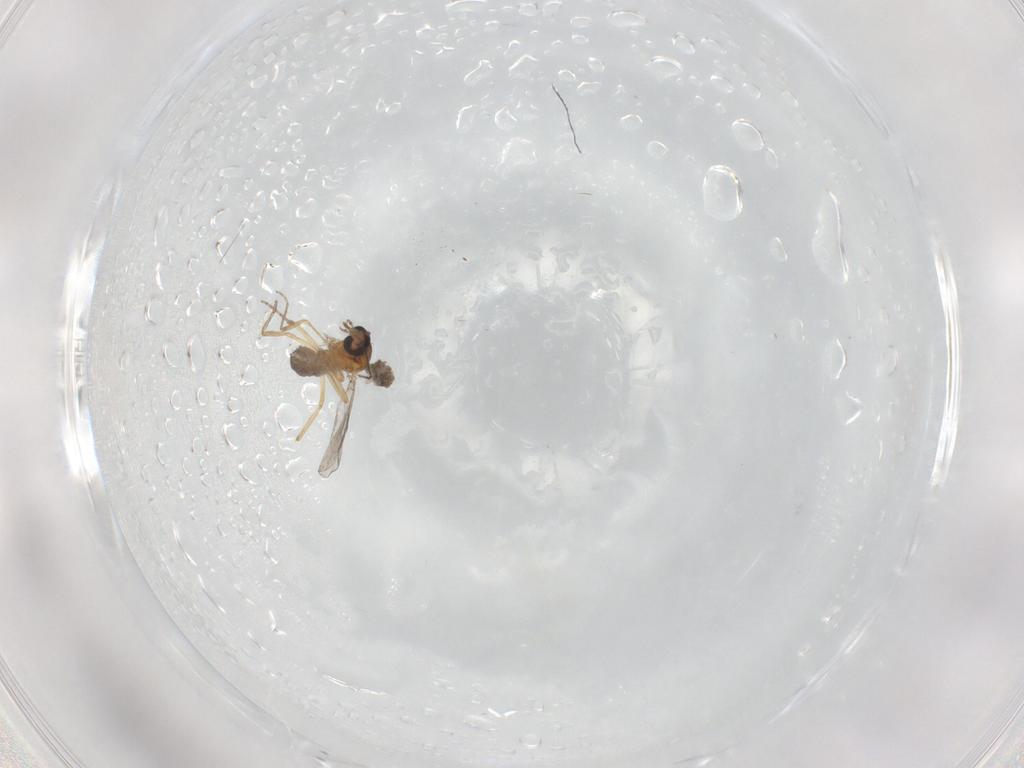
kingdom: Animalia
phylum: Arthropoda
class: Insecta
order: Diptera
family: Ceratopogonidae
